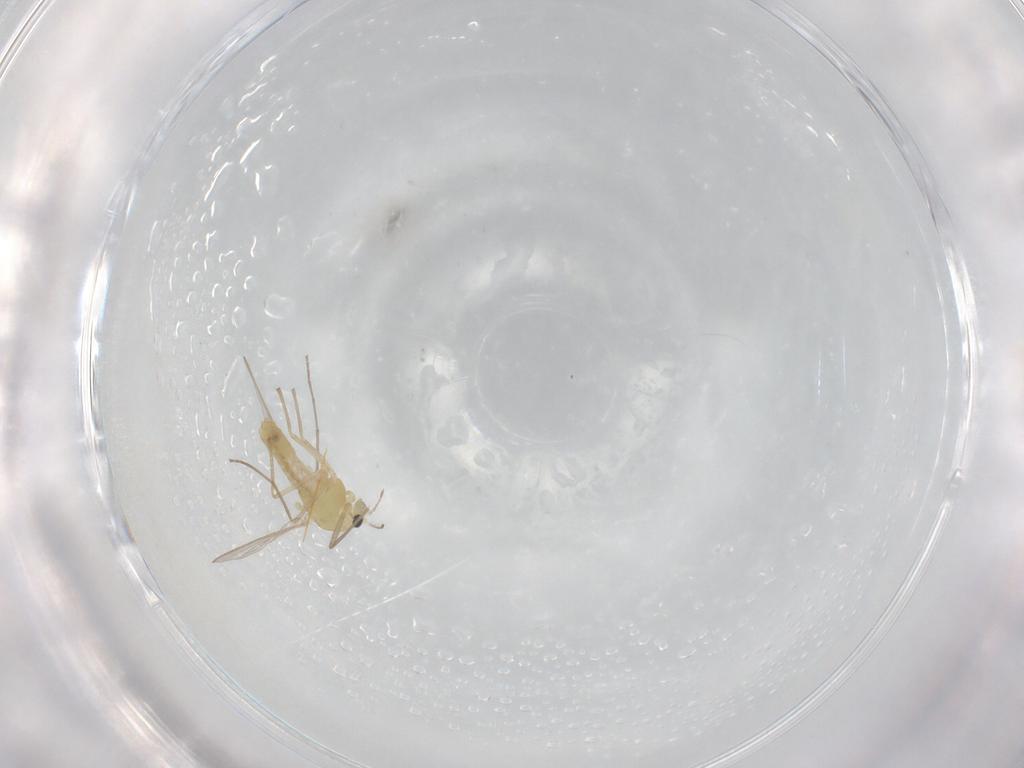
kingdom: Animalia
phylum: Arthropoda
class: Insecta
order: Diptera
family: Chironomidae
